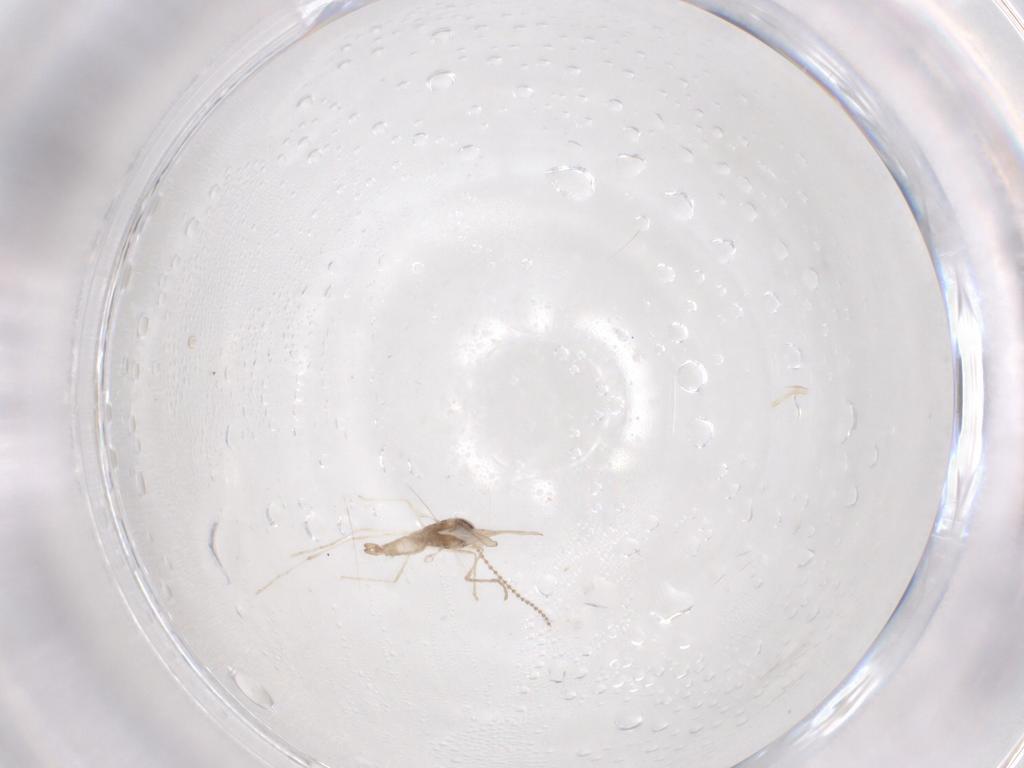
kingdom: Animalia
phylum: Arthropoda
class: Insecta
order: Diptera
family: Cecidomyiidae
